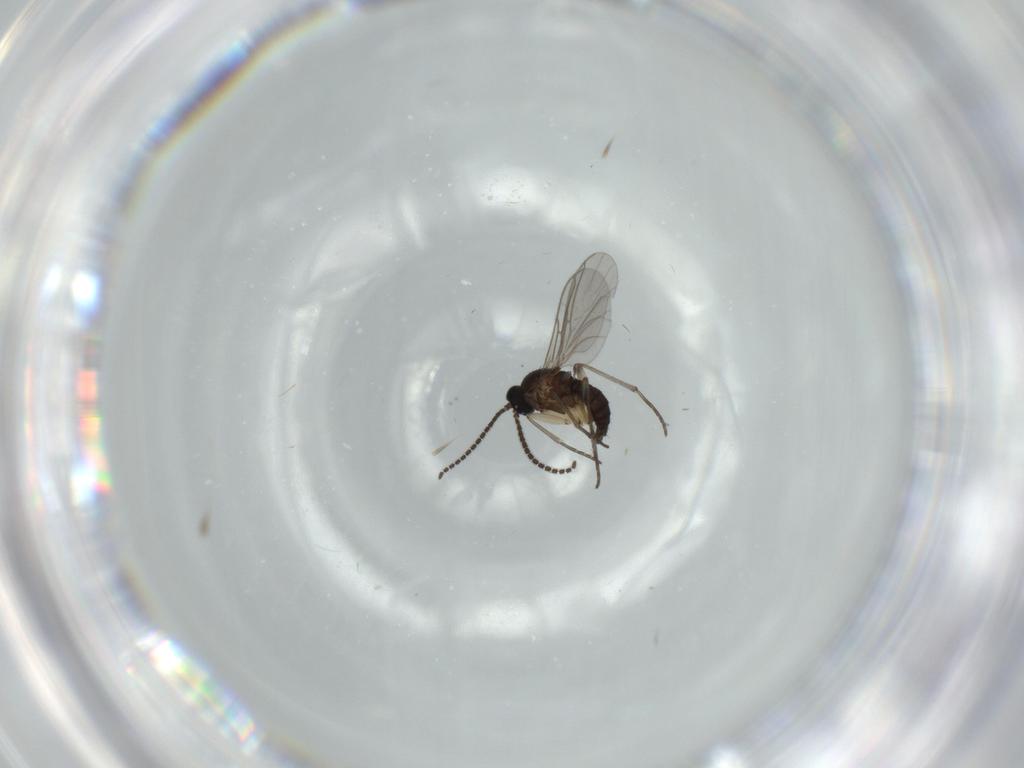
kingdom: Animalia
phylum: Arthropoda
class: Insecta
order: Diptera
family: Sciaridae
